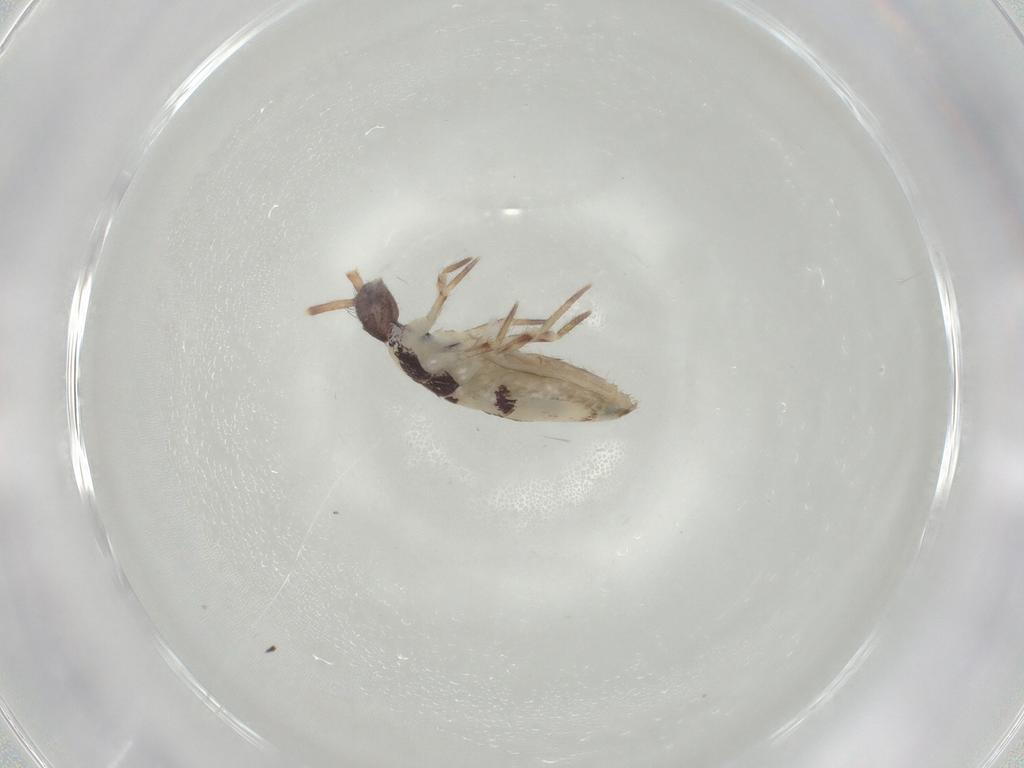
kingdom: Animalia
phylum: Arthropoda
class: Collembola
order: Entomobryomorpha
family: Entomobryidae
